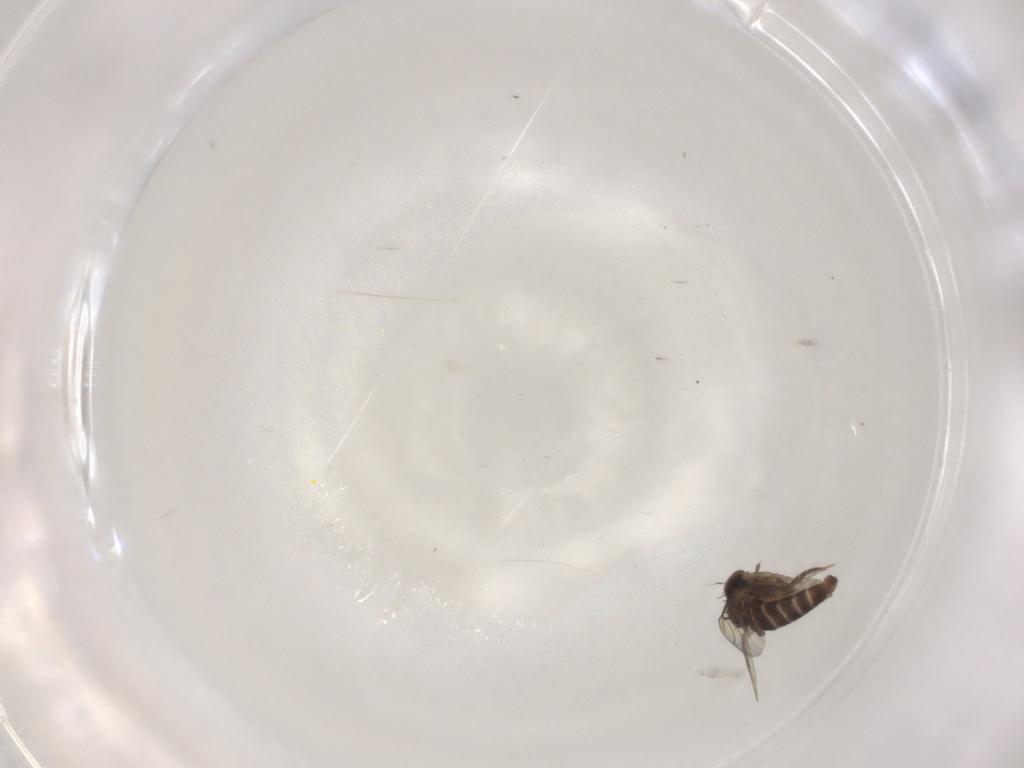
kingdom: Animalia
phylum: Arthropoda
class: Insecta
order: Diptera
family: Phoridae
